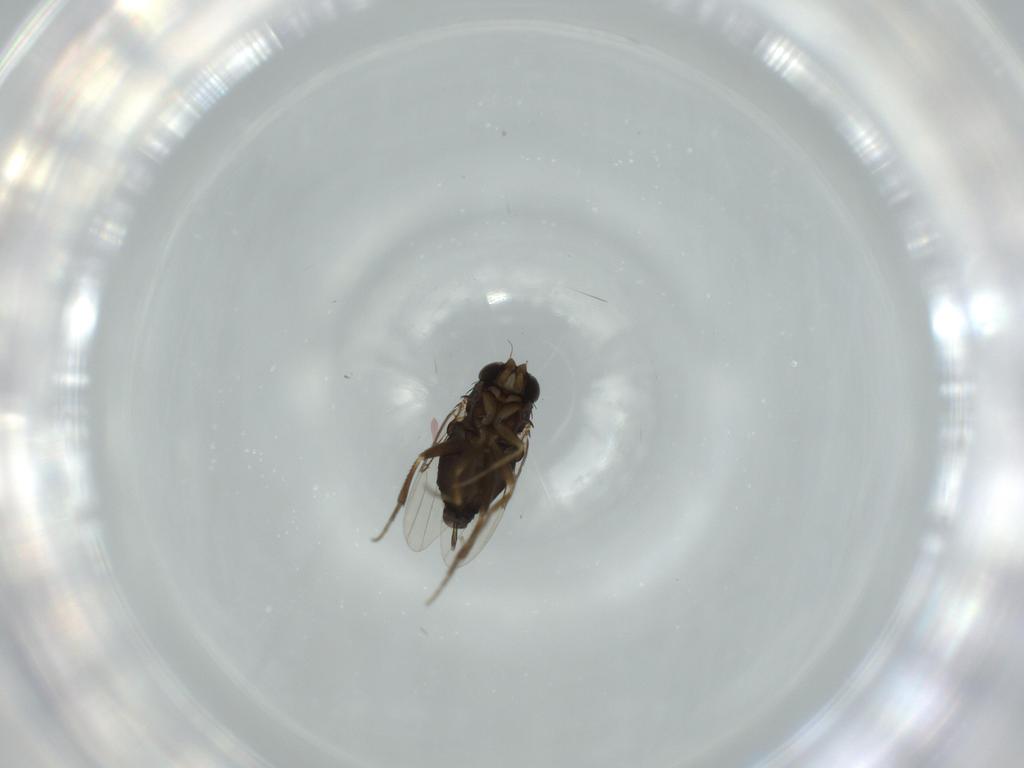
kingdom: Animalia
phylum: Arthropoda
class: Insecta
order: Diptera
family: Phoridae
